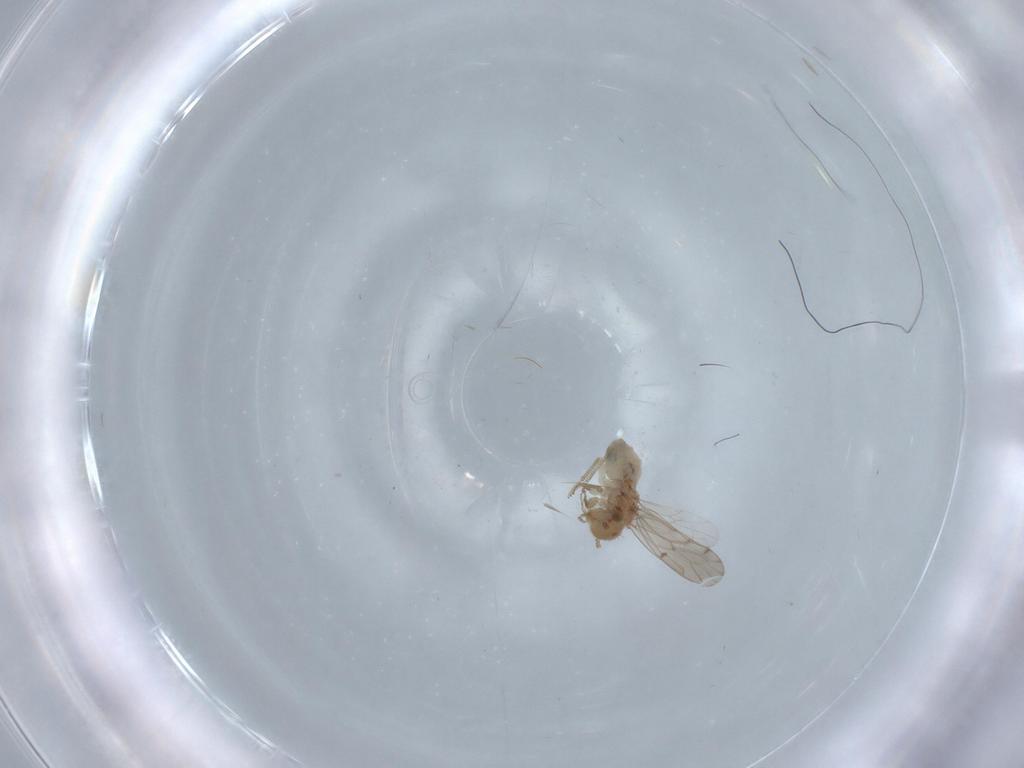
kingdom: Animalia
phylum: Arthropoda
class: Insecta
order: Psocodea
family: Ectopsocidae
